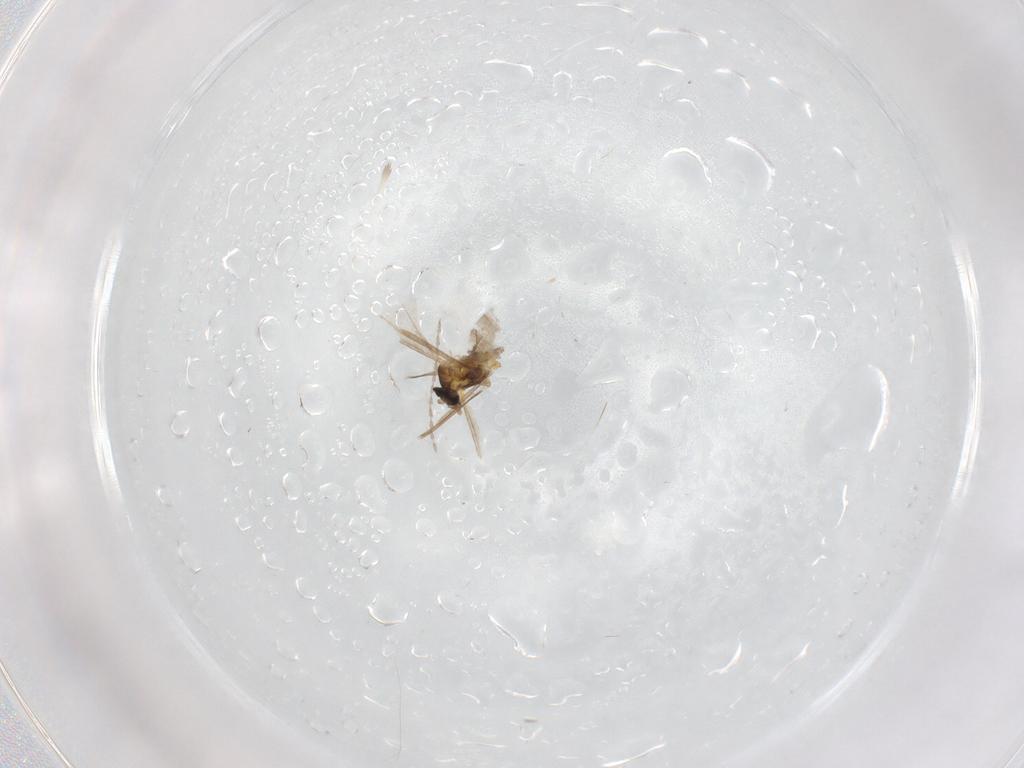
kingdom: Animalia
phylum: Arthropoda
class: Insecta
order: Diptera
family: Cecidomyiidae
